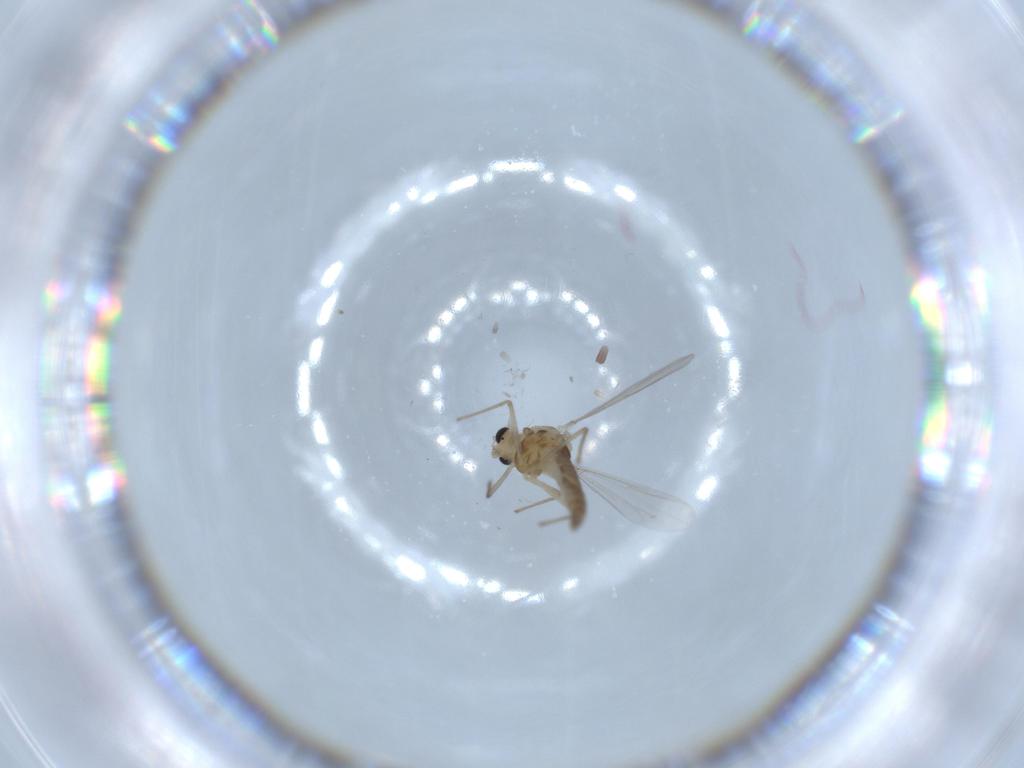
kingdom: Animalia
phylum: Arthropoda
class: Insecta
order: Diptera
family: Chironomidae
